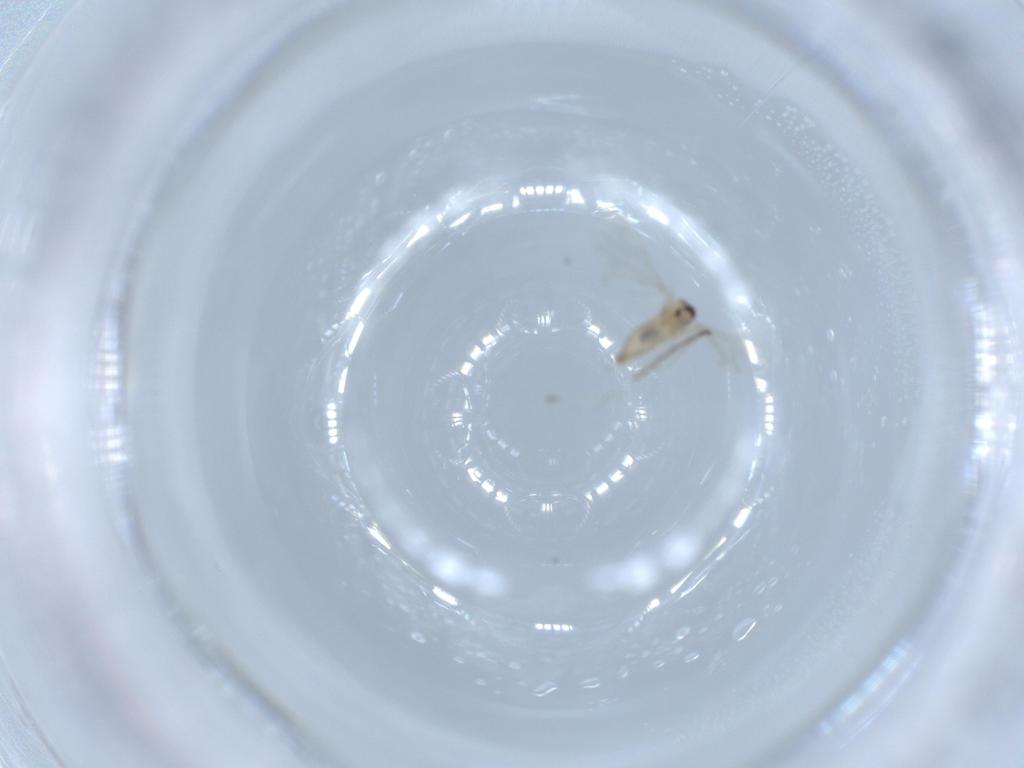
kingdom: Animalia
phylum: Arthropoda
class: Insecta
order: Diptera
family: Cecidomyiidae
